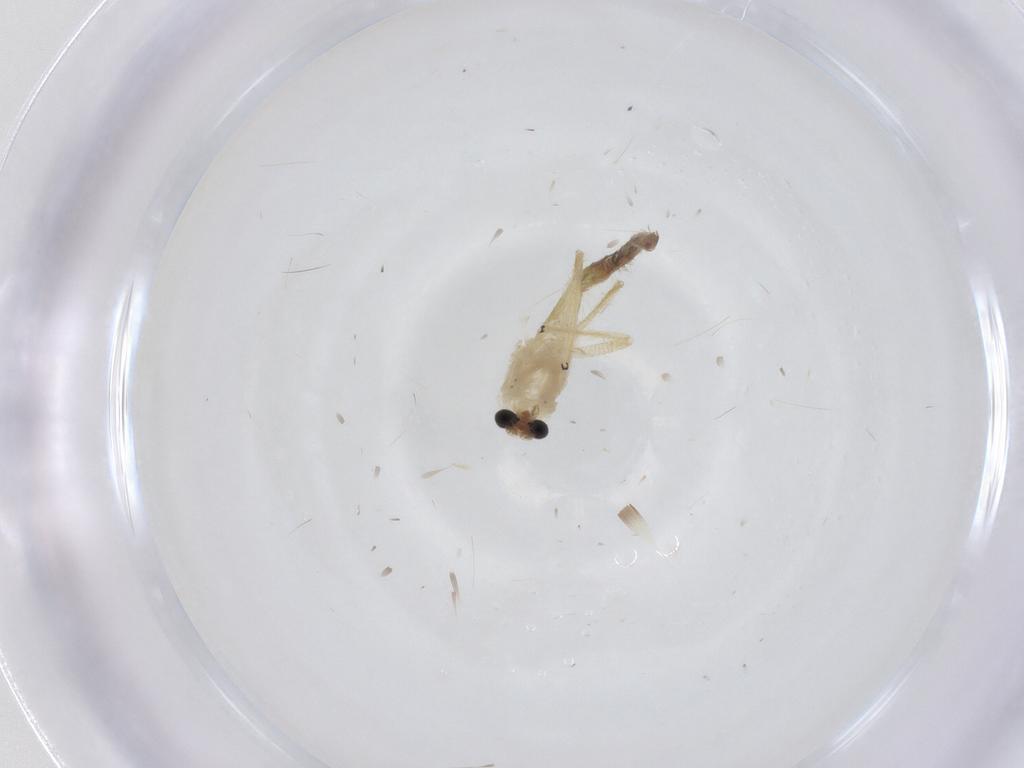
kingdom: Animalia
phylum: Arthropoda
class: Insecta
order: Diptera
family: Chironomidae
